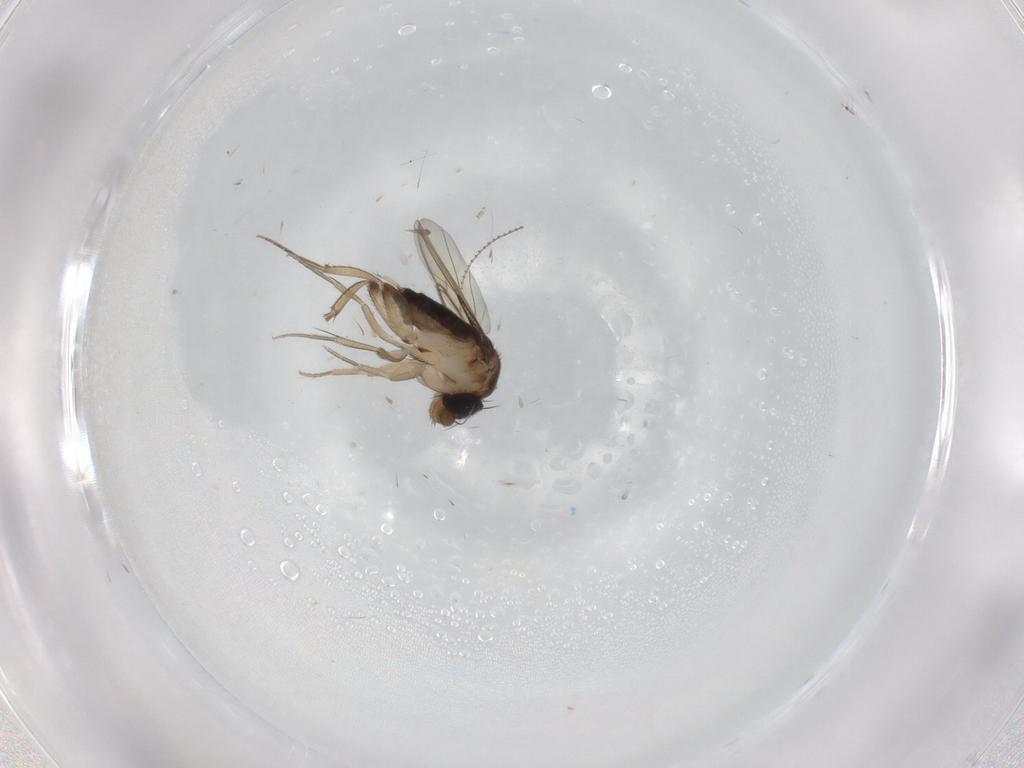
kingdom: Animalia
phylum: Arthropoda
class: Insecta
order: Diptera
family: Phoridae
